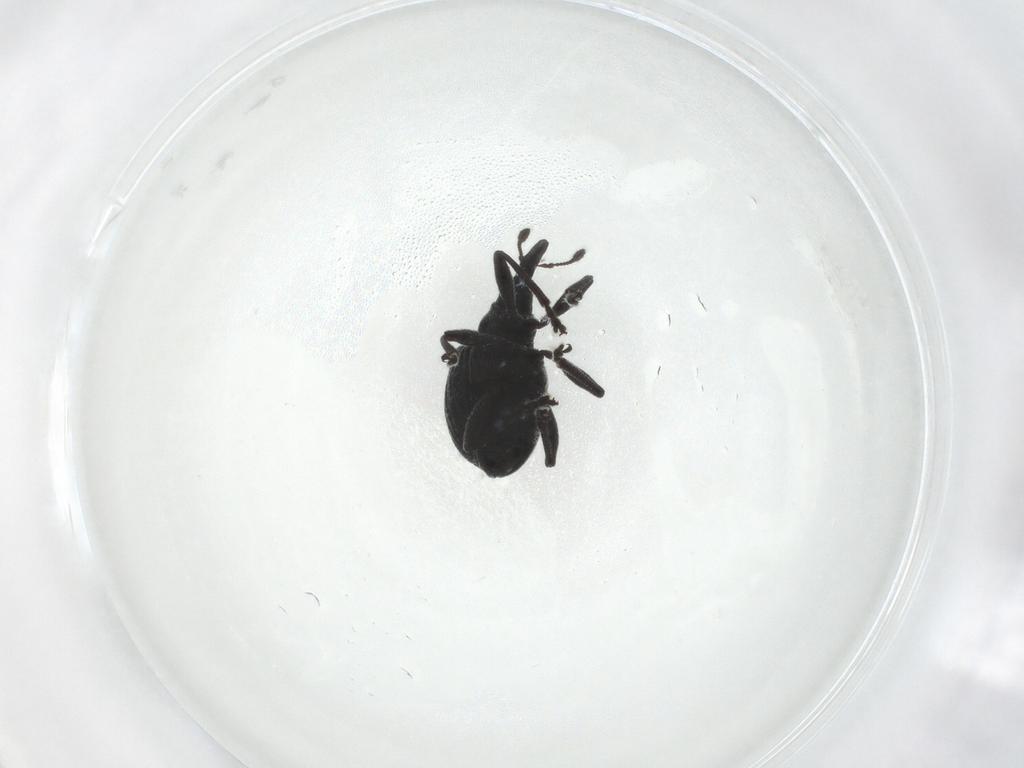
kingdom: Animalia
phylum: Arthropoda
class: Insecta
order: Coleoptera
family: Brentidae
